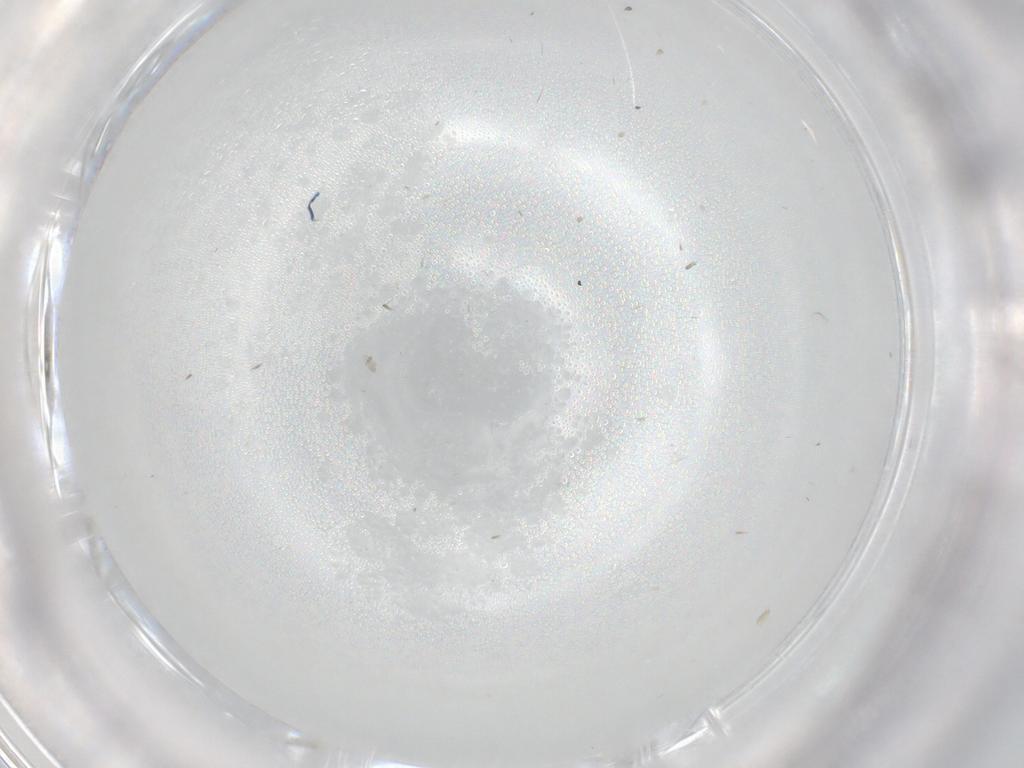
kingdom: Animalia
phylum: Arthropoda
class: Insecta
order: Diptera
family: Sciaridae
